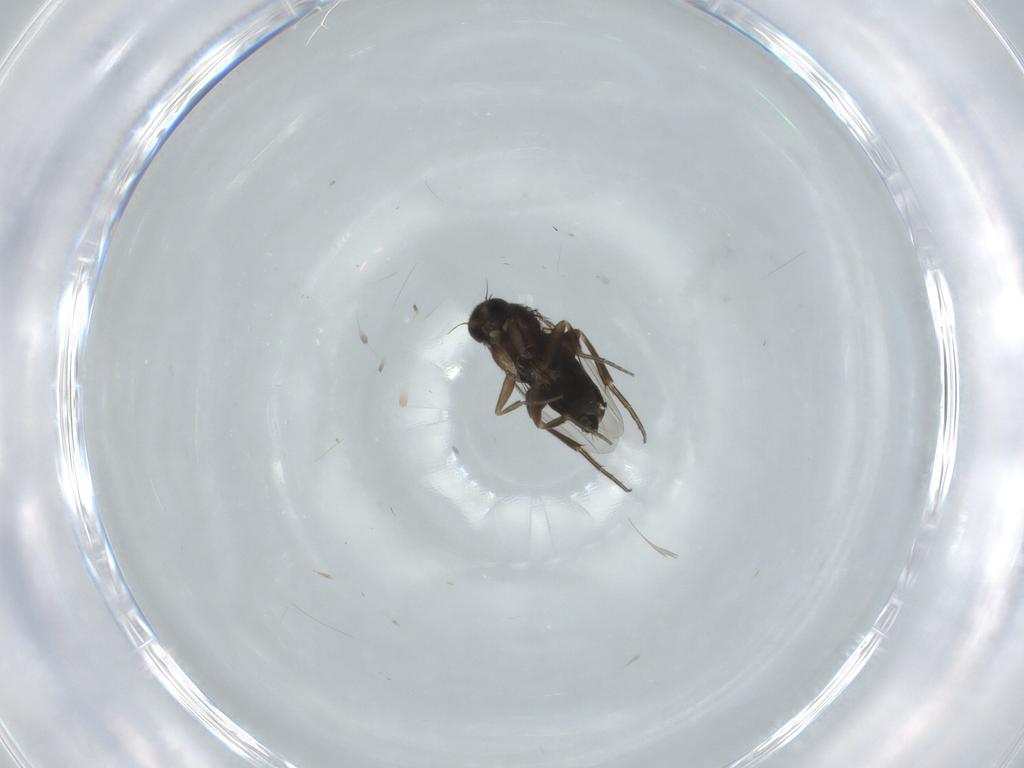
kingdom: Animalia
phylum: Arthropoda
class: Insecta
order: Diptera
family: Phoridae
